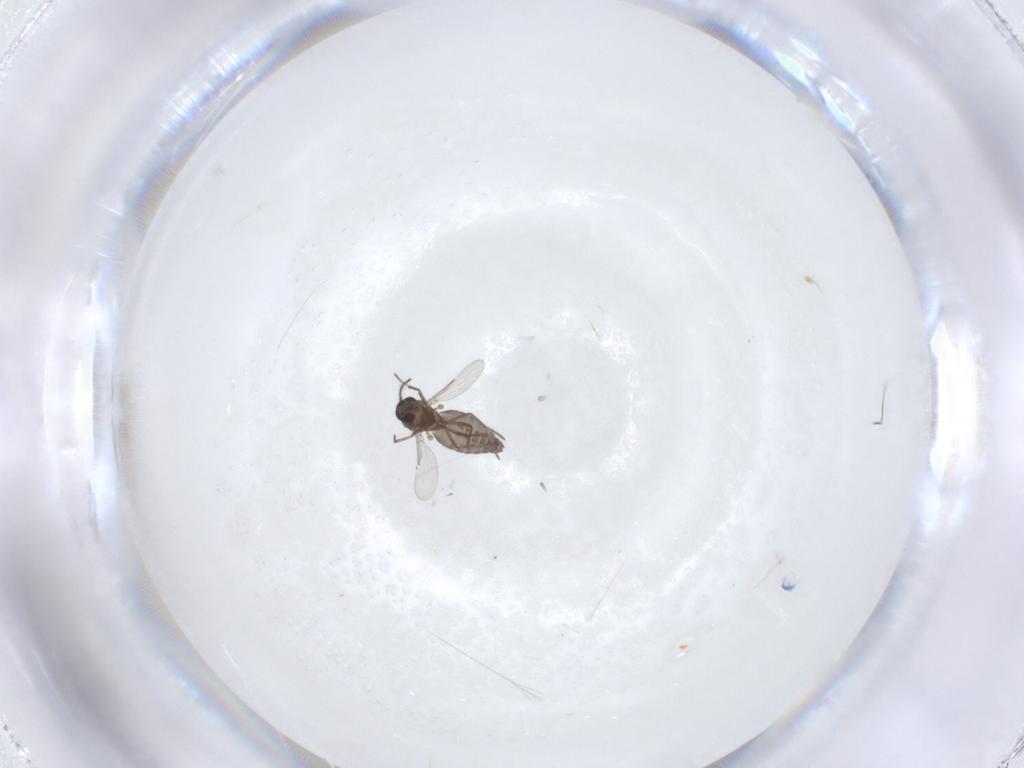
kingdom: Animalia
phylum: Arthropoda
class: Insecta
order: Diptera
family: Ceratopogonidae
